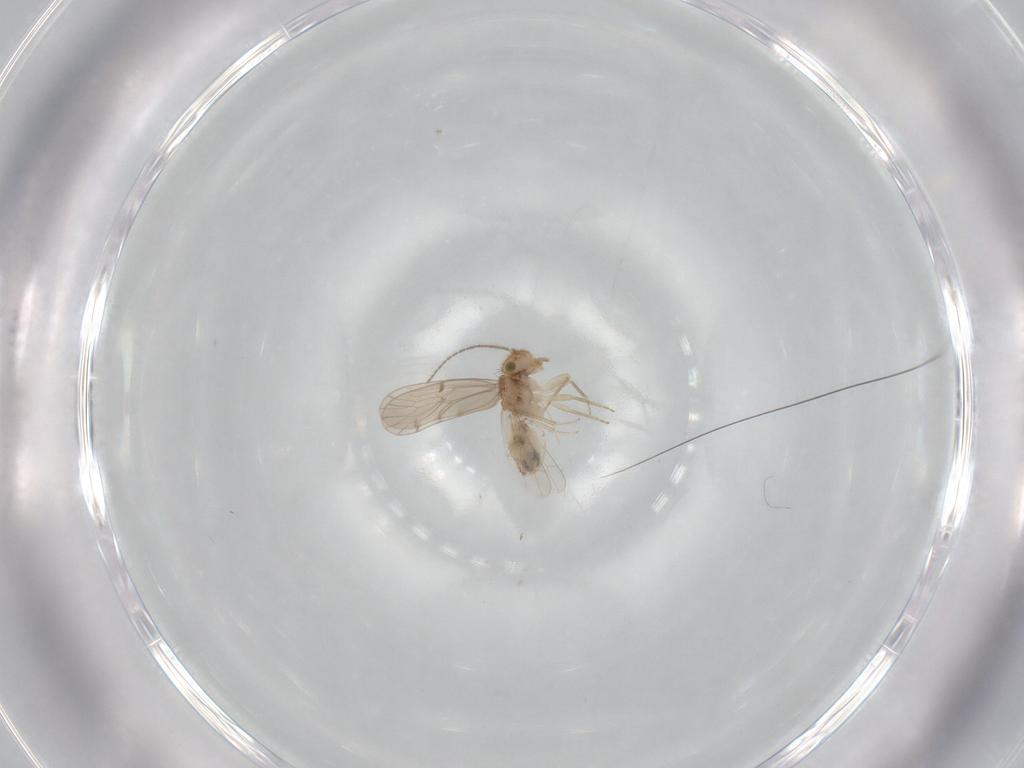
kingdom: Animalia
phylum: Arthropoda
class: Insecta
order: Psocodea
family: Ectopsocidae
